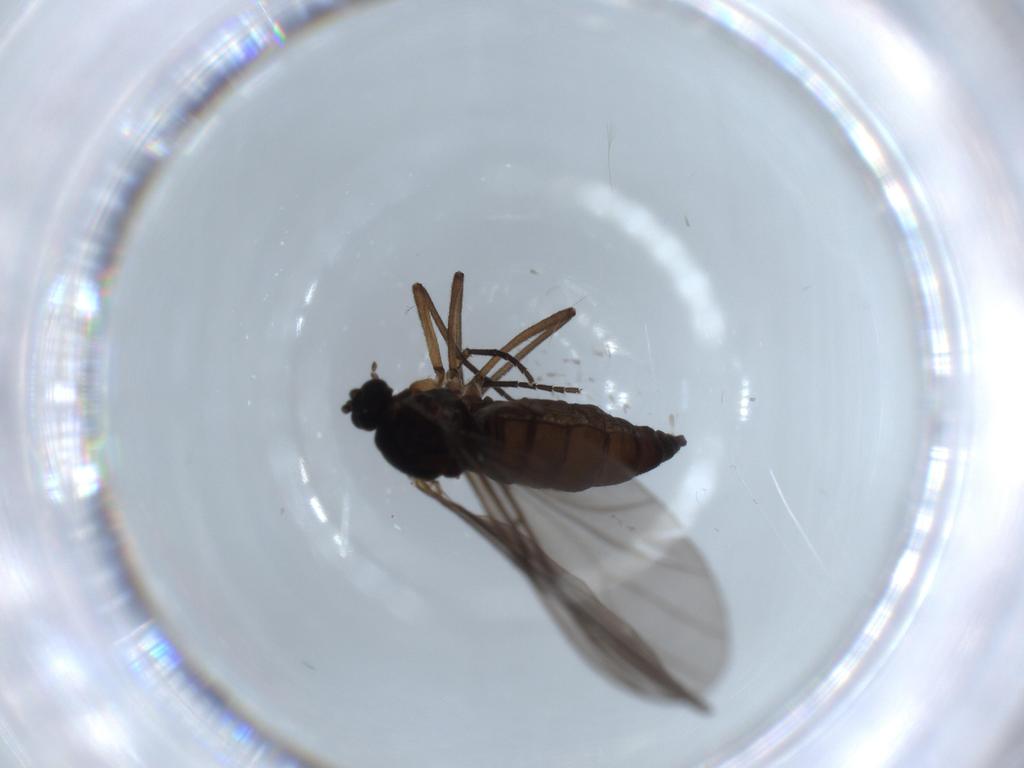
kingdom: Animalia
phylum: Arthropoda
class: Insecta
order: Diptera
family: Sciaridae
